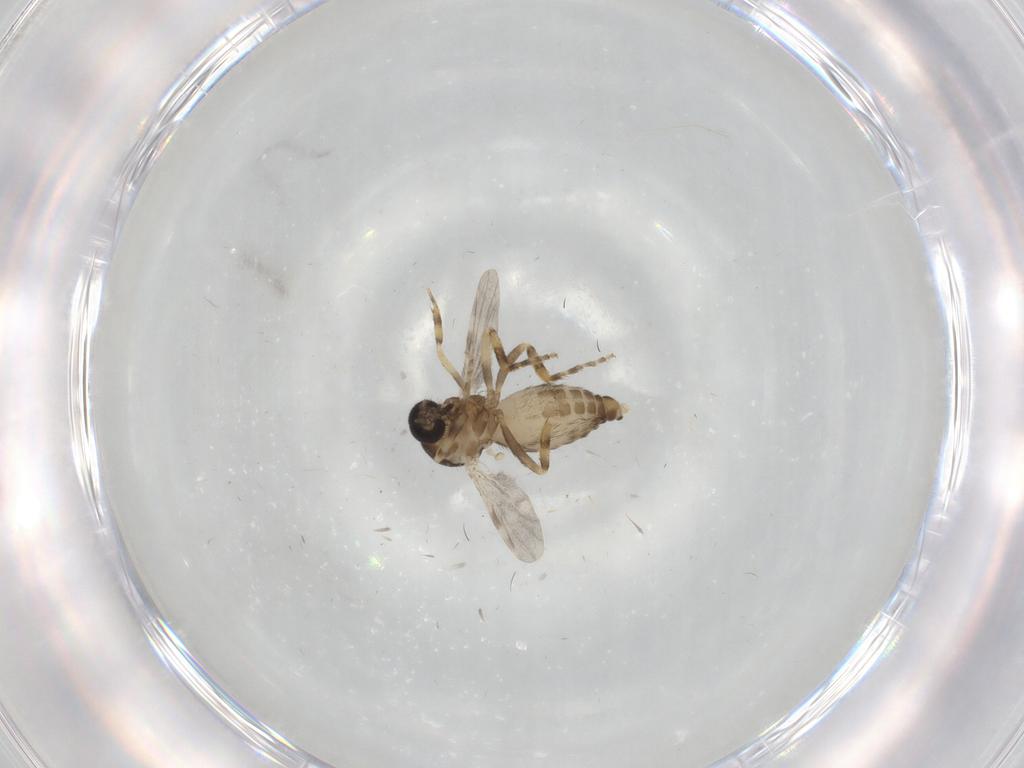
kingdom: Animalia
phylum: Arthropoda
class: Insecta
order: Diptera
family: Ceratopogonidae
